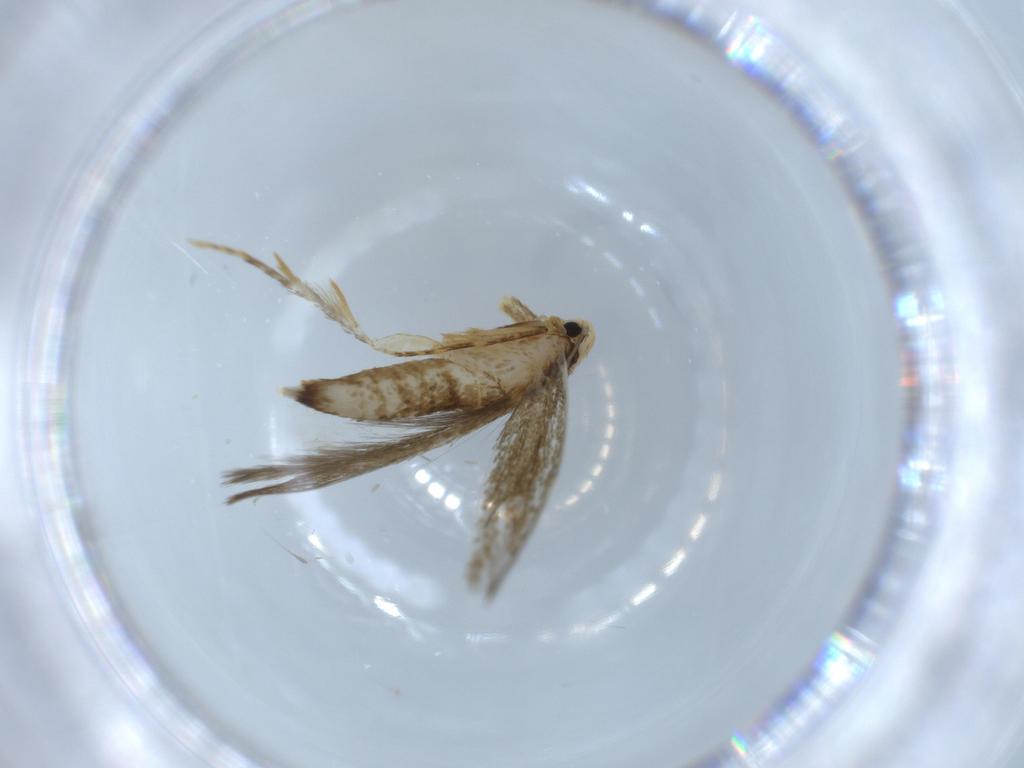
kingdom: Animalia
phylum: Arthropoda
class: Insecta
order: Lepidoptera
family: Tineidae
